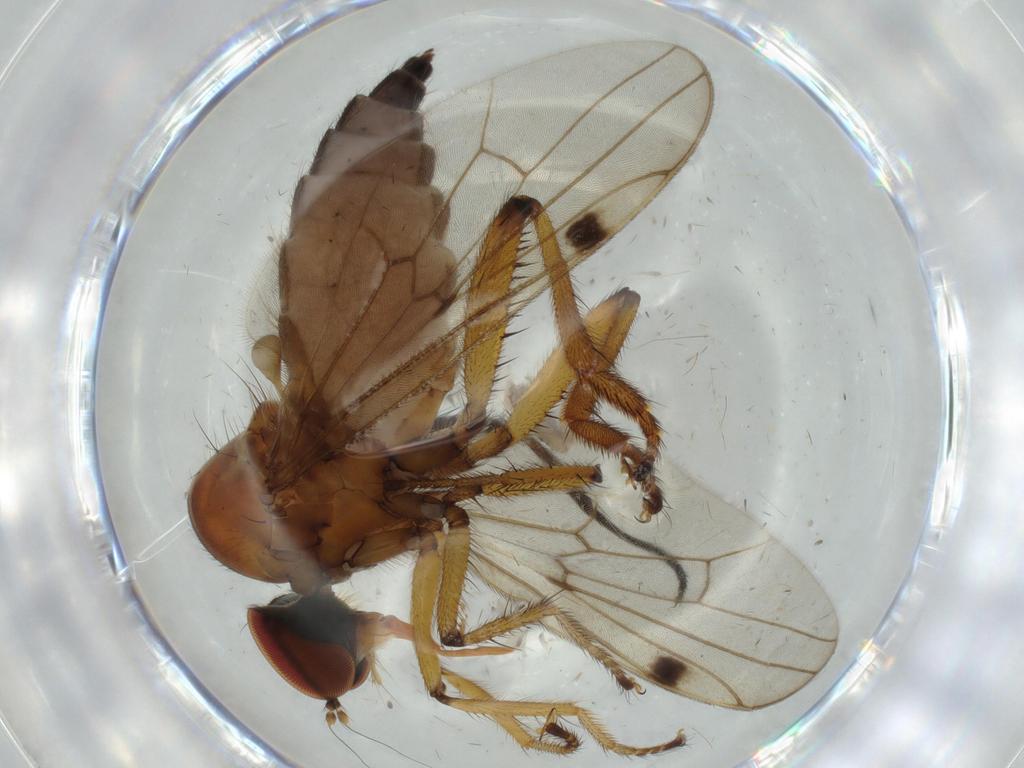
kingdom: Animalia
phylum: Arthropoda
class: Insecta
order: Diptera
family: Hybotidae
